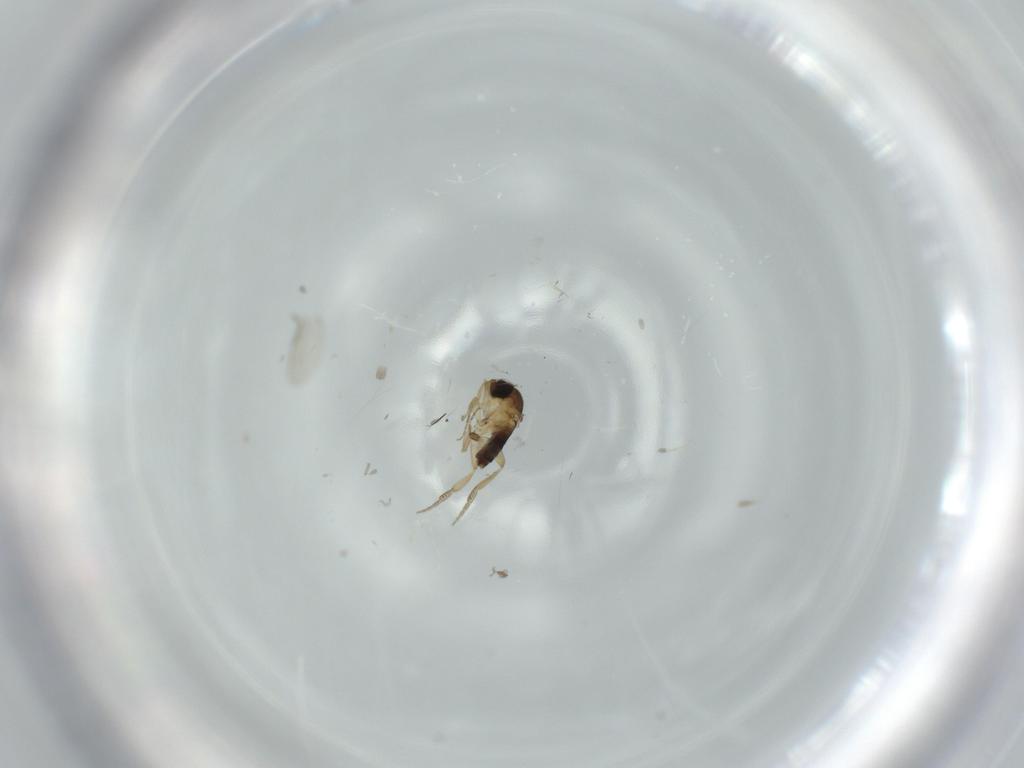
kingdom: Animalia
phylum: Arthropoda
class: Insecta
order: Diptera
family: Phoridae
